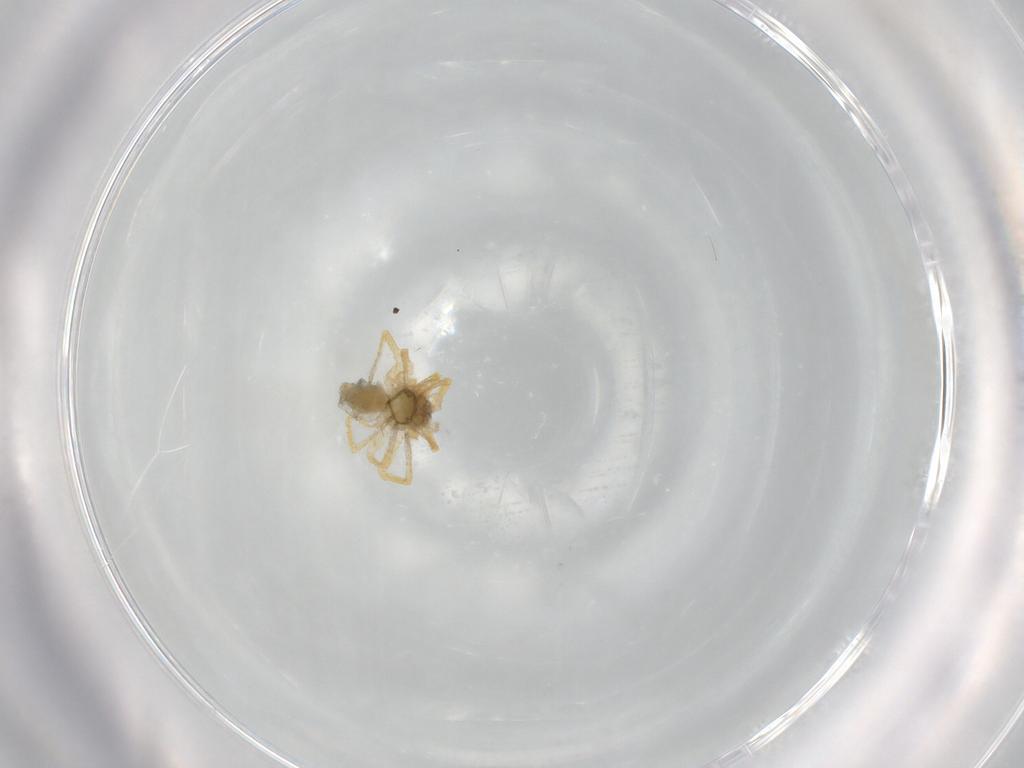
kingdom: Animalia
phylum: Arthropoda
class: Arachnida
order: Araneae
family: Linyphiidae
